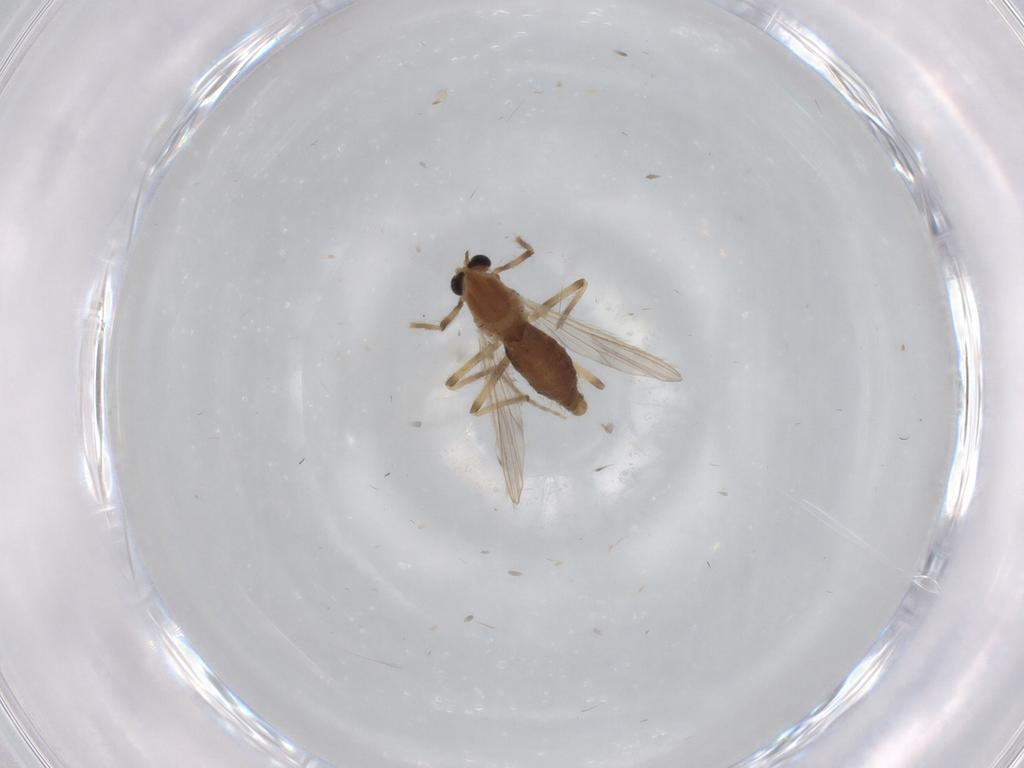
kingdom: Animalia
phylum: Arthropoda
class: Insecta
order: Diptera
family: Chironomidae
